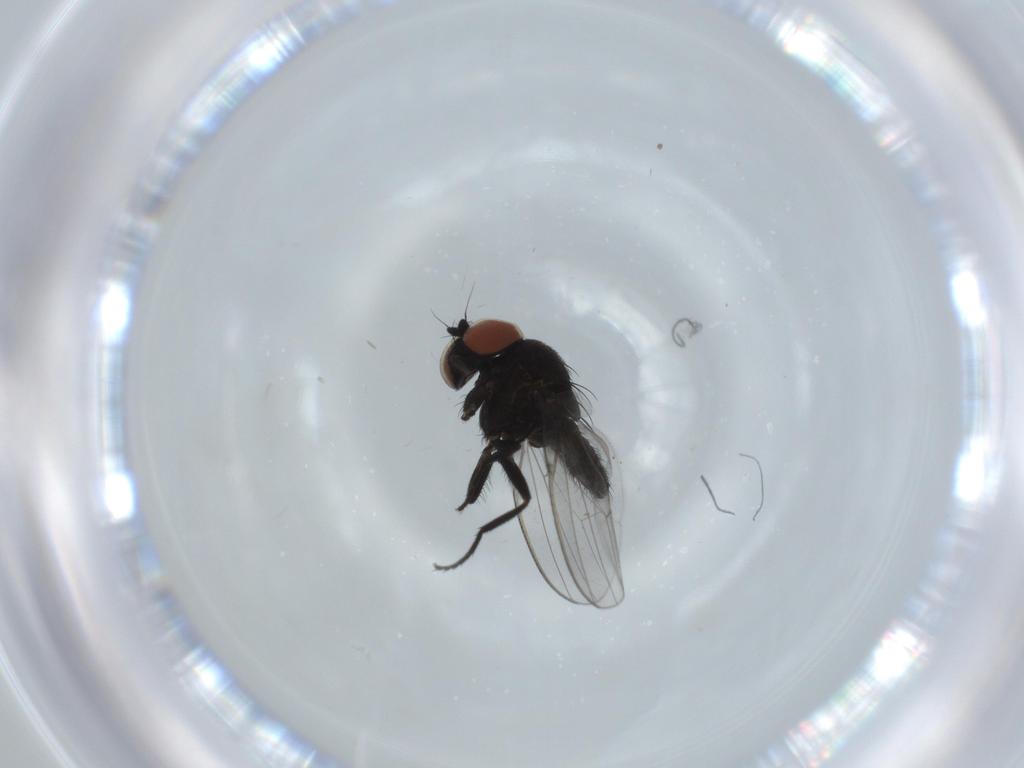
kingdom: Animalia
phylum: Arthropoda
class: Insecta
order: Diptera
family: Milichiidae
